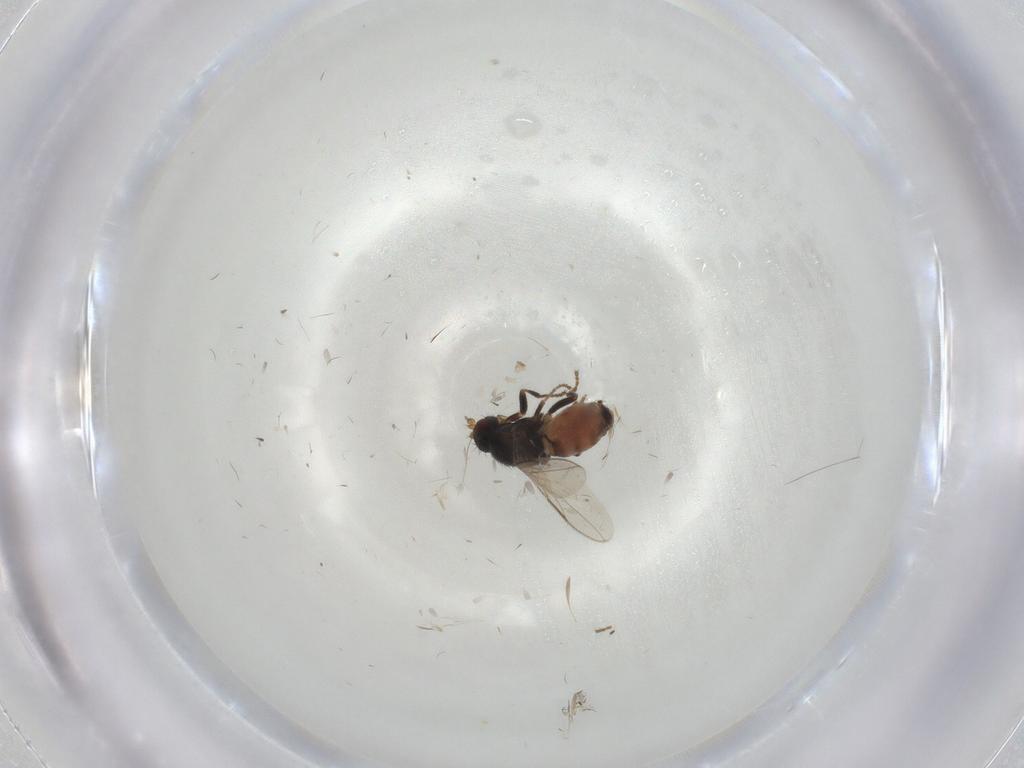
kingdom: Animalia
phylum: Arthropoda
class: Insecta
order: Diptera
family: Sphaeroceridae
